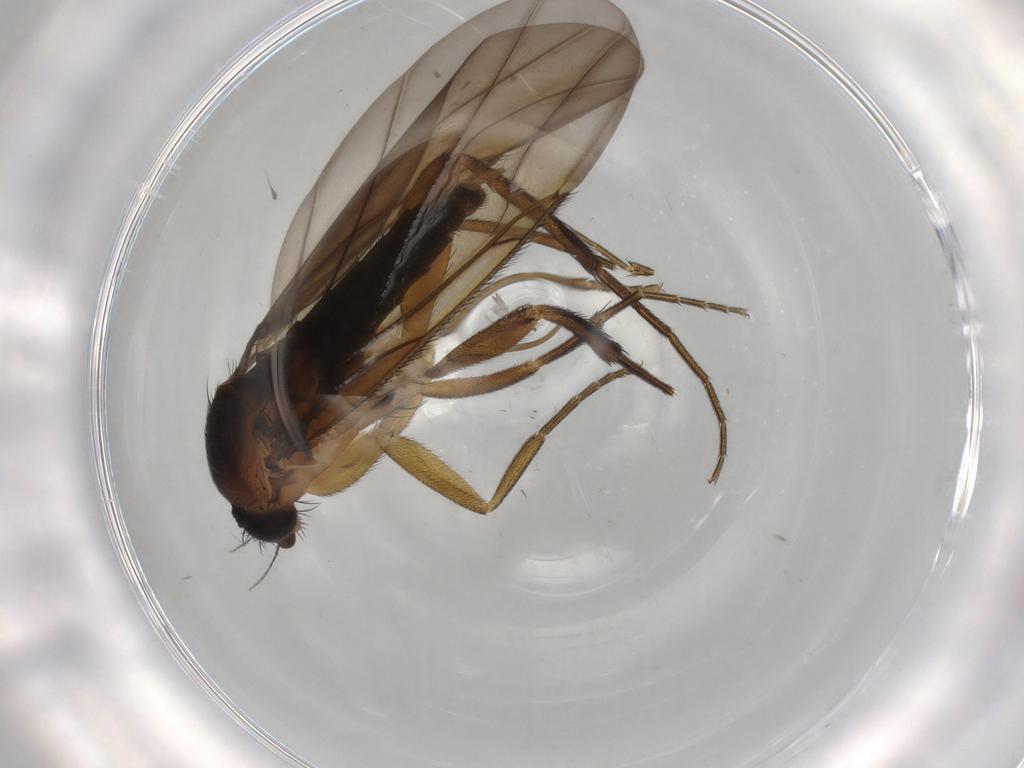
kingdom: Animalia
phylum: Arthropoda
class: Insecta
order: Diptera
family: Phoridae
